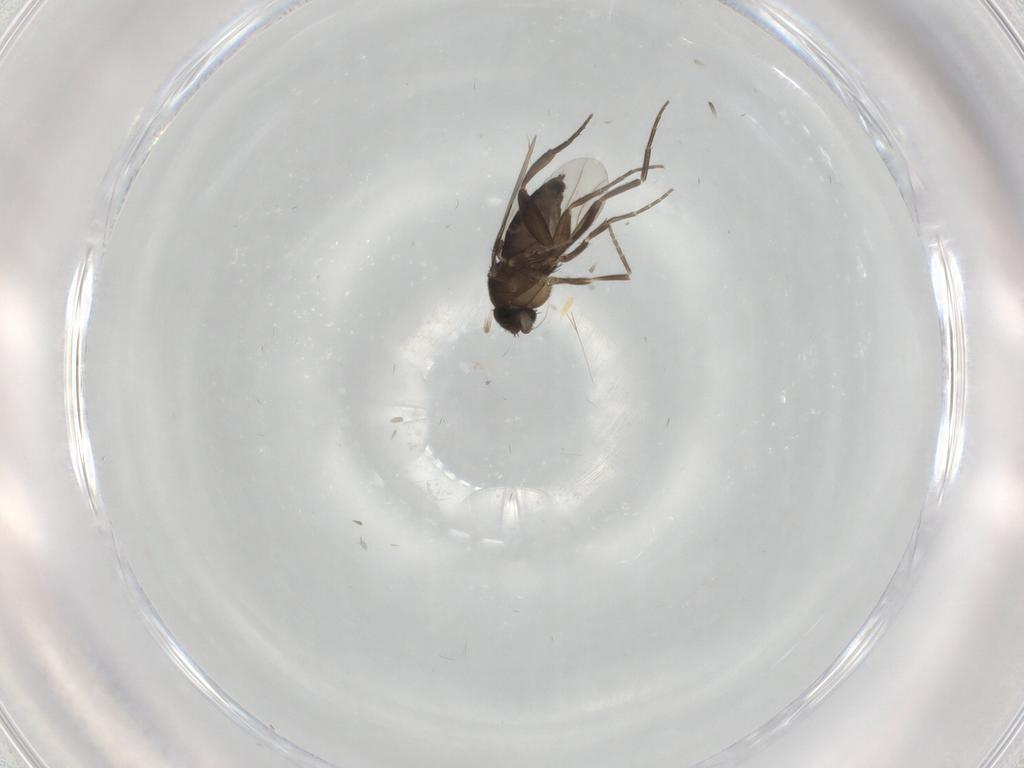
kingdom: Animalia
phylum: Arthropoda
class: Insecta
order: Diptera
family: Phoridae
